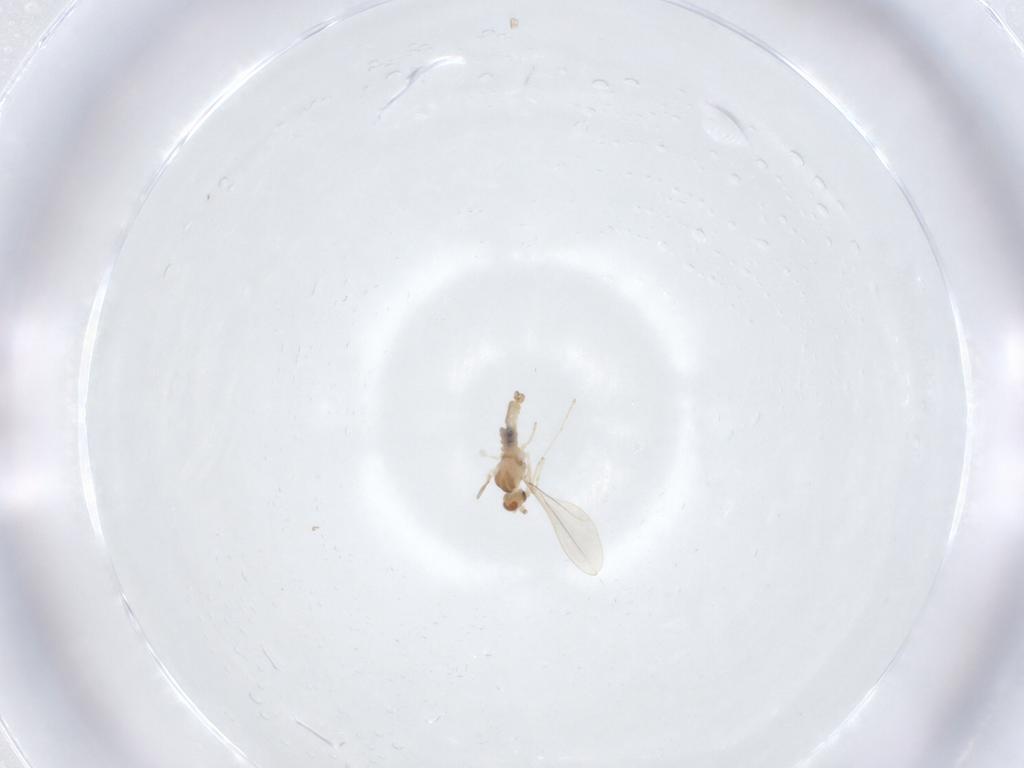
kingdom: Animalia
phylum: Arthropoda
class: Insecta
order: Diptera
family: Cecidomyiidae
